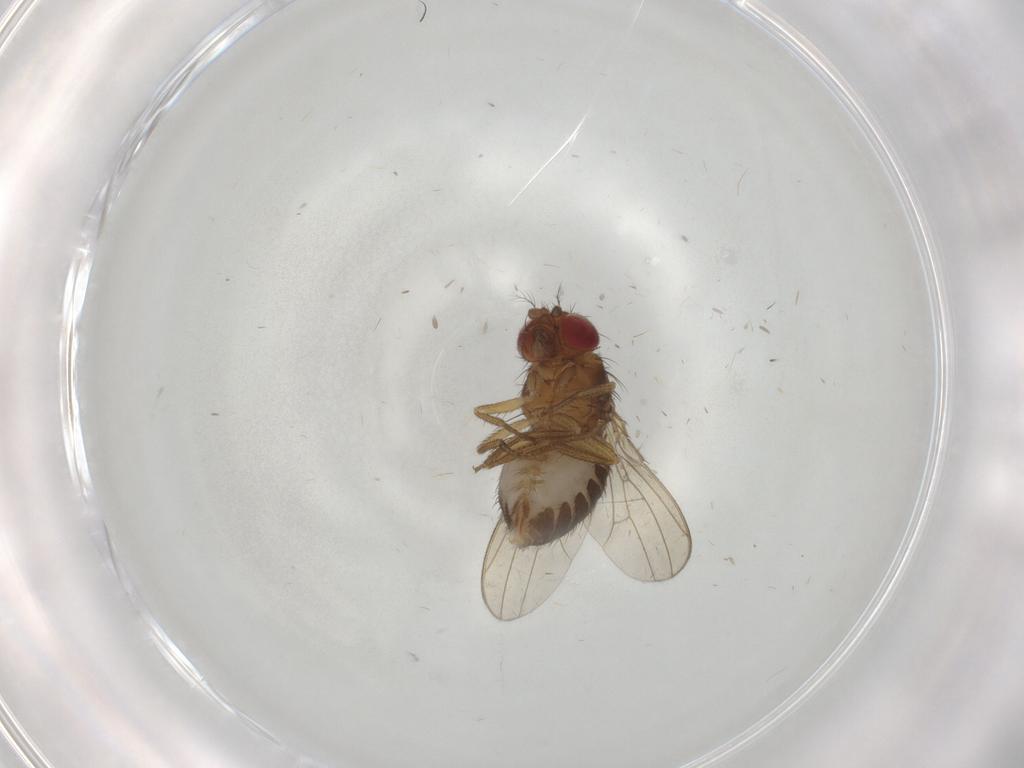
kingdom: Animalia
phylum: Arthropoda
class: Insecta
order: Diptera
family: Drosophilidae
